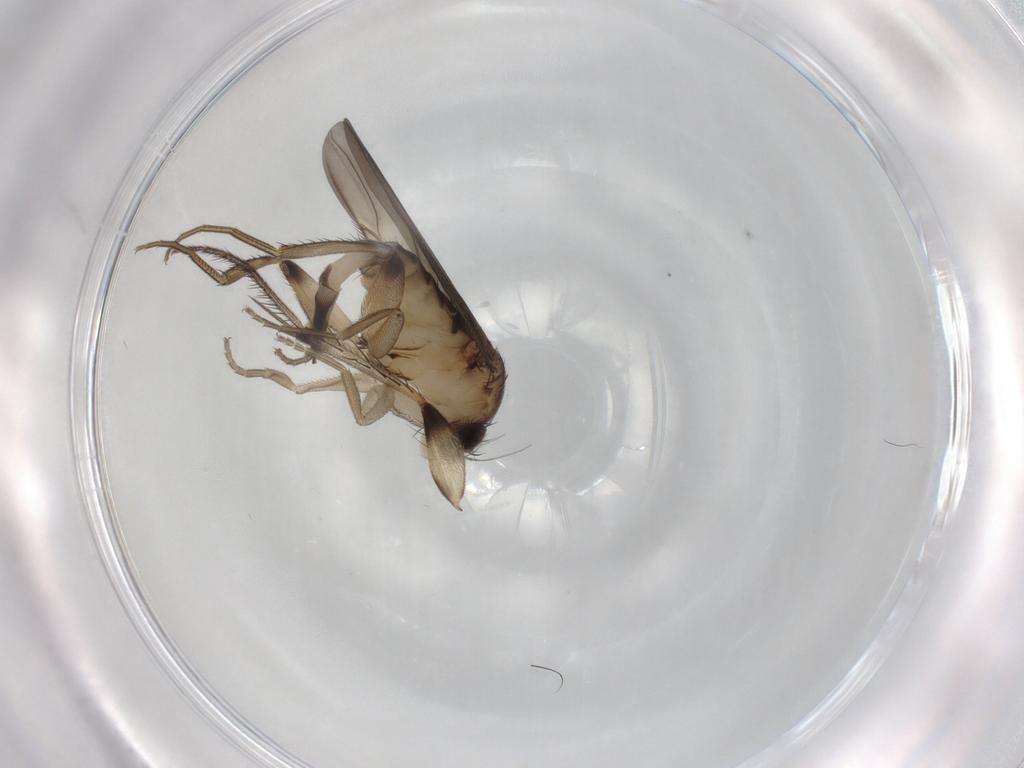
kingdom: Animalia
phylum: Arthropoda
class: Insecta
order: Diptera
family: Phoridae
